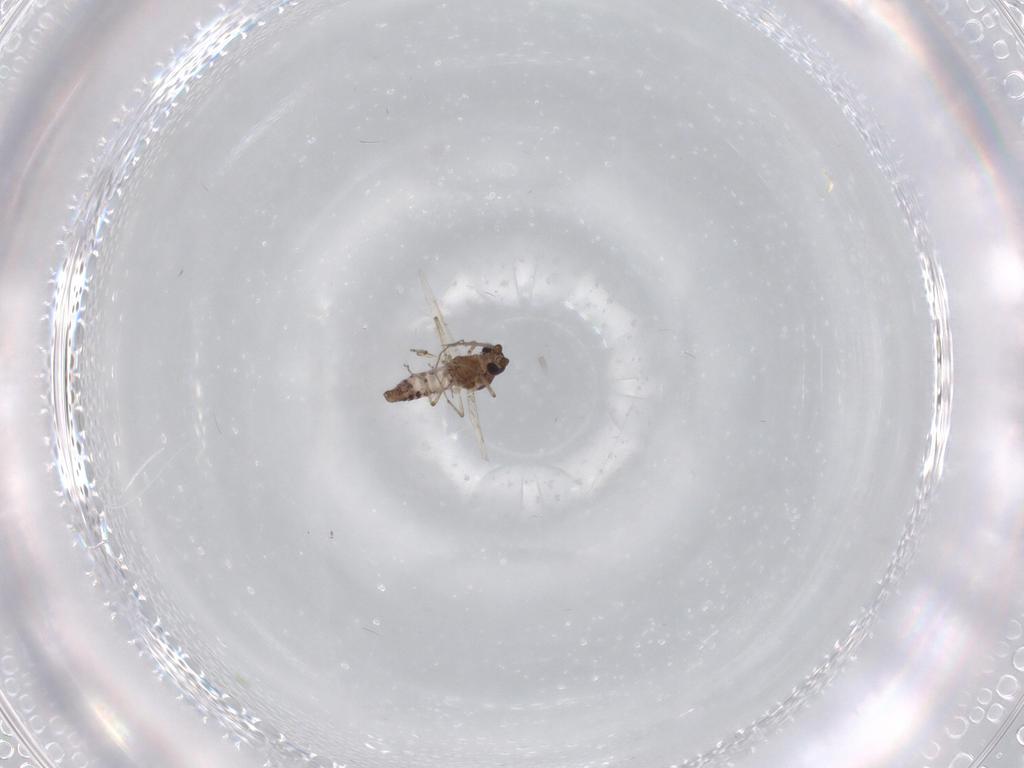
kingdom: Animalia
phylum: Arthropoda
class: Insecta
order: Diptera
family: Ceratopogonidae
